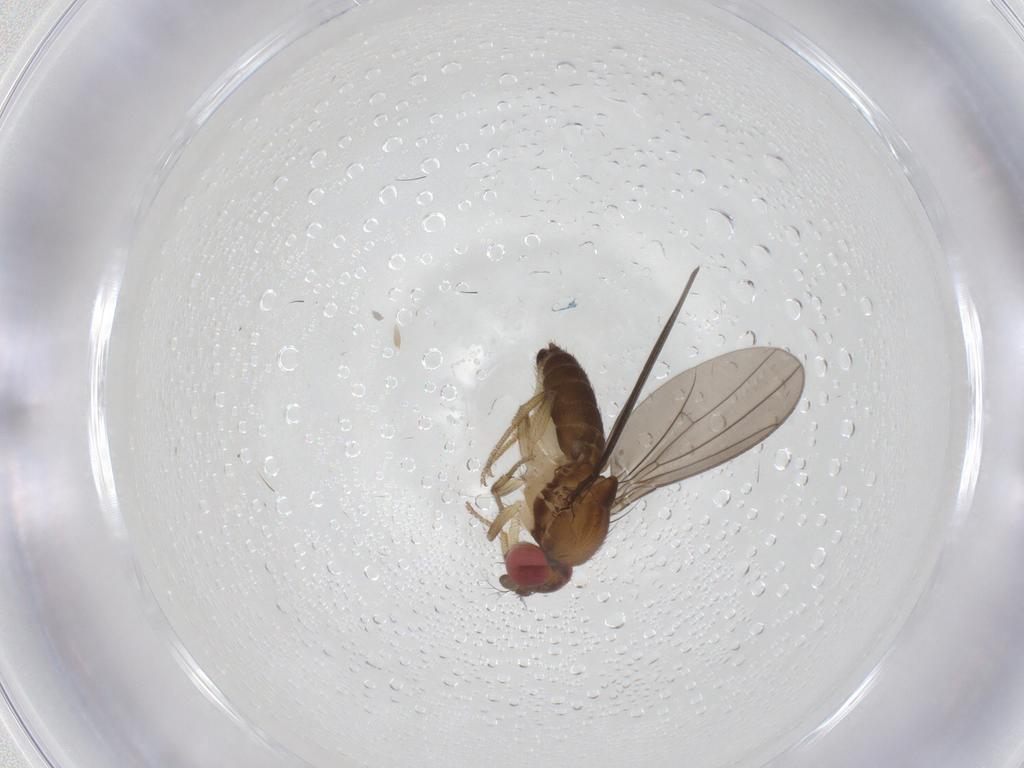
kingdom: Animalia
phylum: Arthropoda
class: Insecta
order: Diptera
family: Drosophilidae
